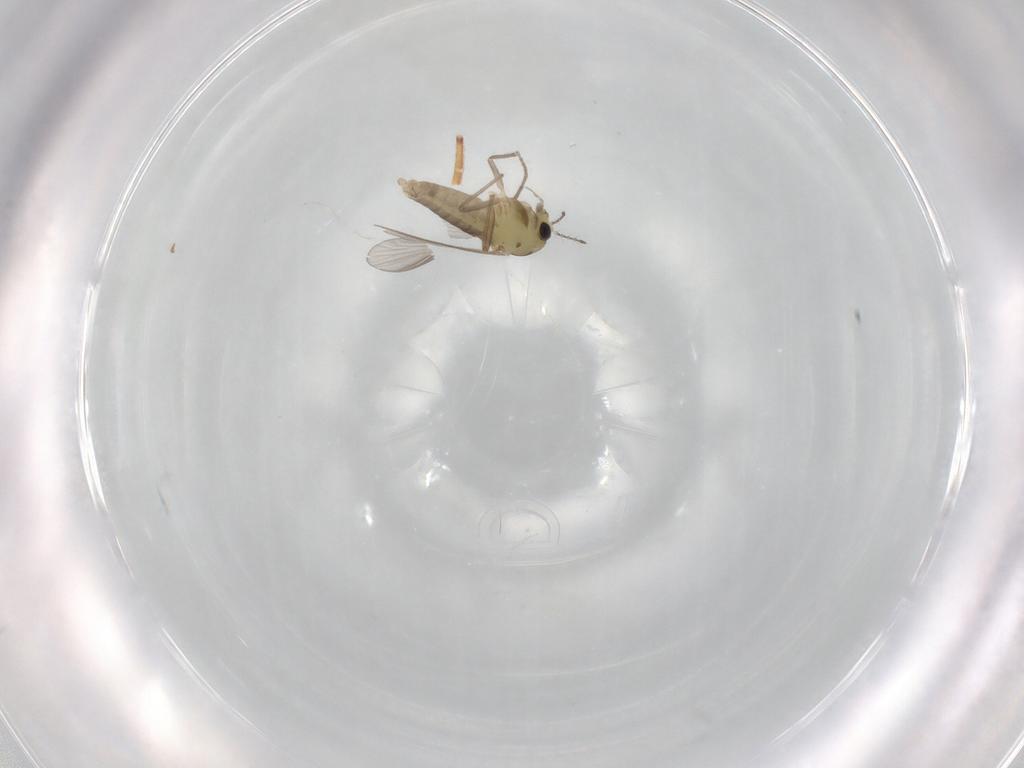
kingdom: Animalia
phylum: Arthropoda
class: Insecta
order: Diptera
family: Chironomidae
